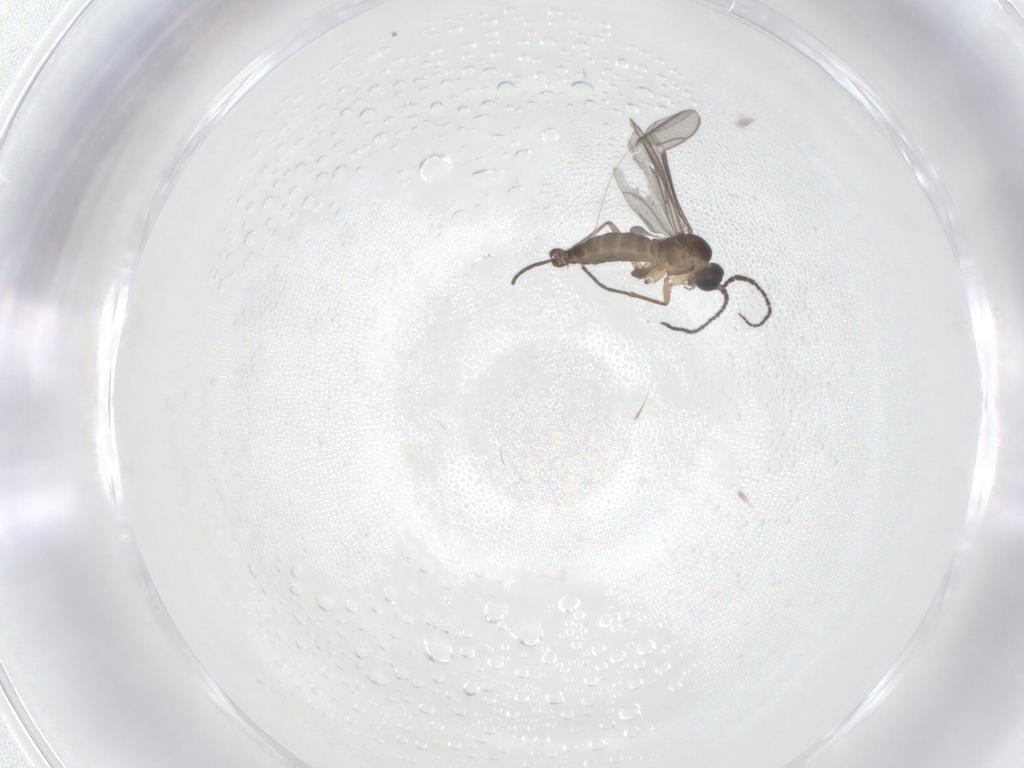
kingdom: Animalia
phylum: Arthropoda
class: Insecta
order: Diptera
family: Sciaridae
